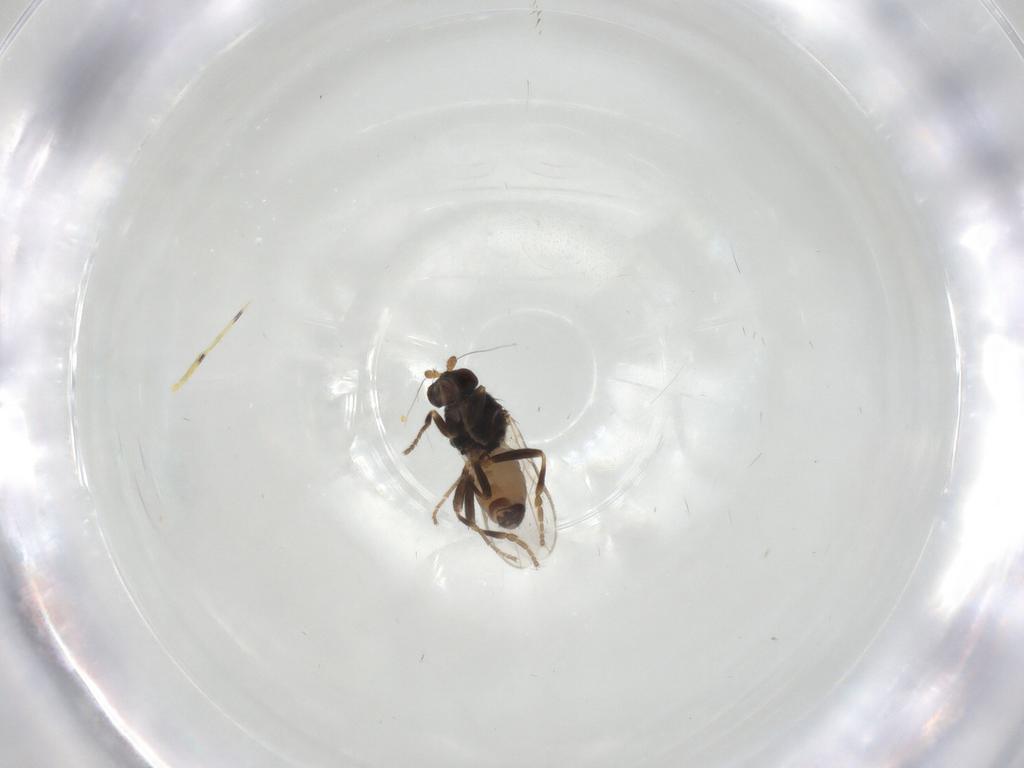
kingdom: Animalia
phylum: Arthropoda
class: Insecta
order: Diptera
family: Sphaeroceridae
